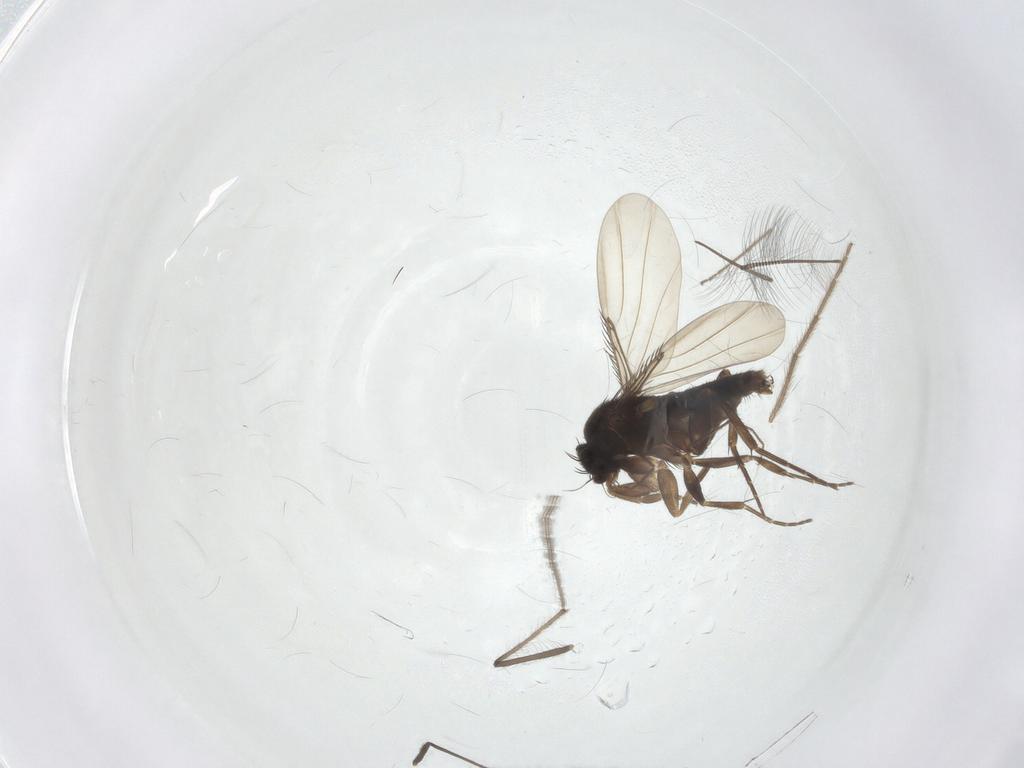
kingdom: Animalia
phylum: Arthropoda
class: Insecta
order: Diptera
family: Phoridae
